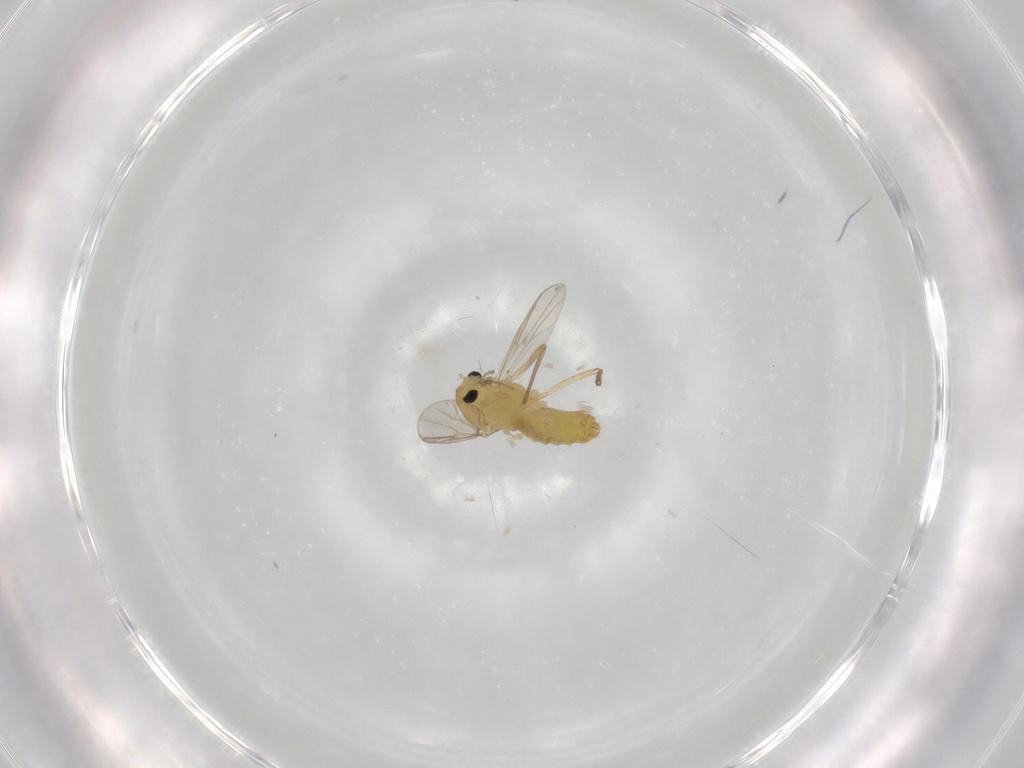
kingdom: Animalia
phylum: Arthropoda
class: Insecta
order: Diptera
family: Chironomidae
